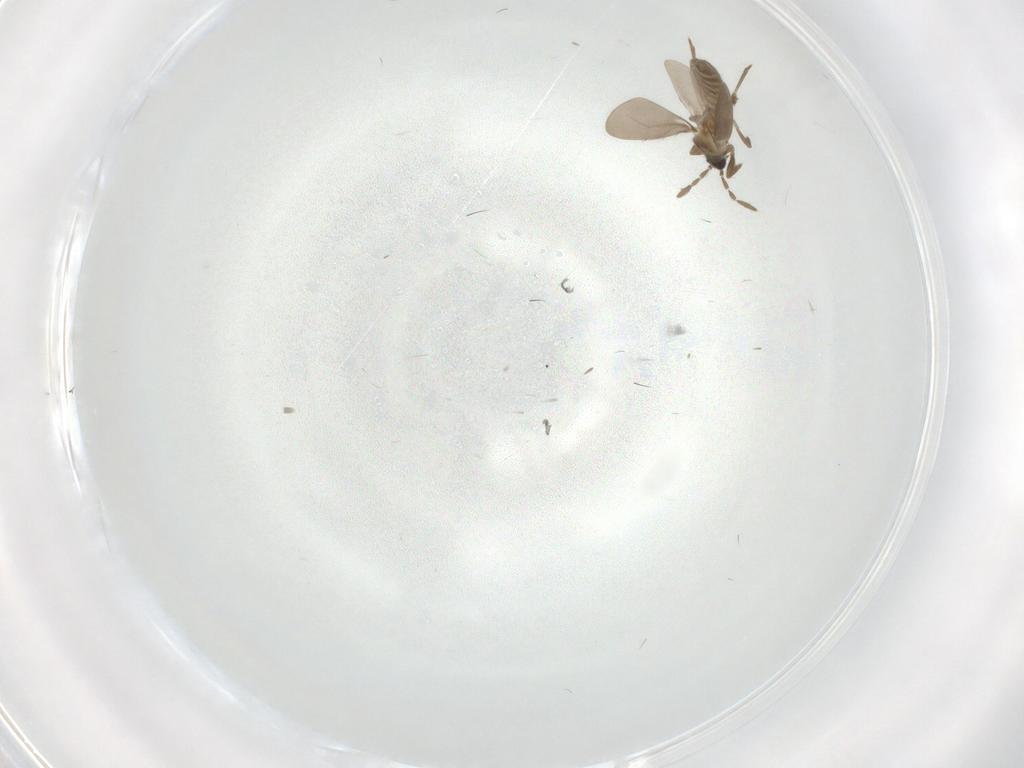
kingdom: Animalia
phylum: Arthropoda
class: Insecta
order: Hemiptera
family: Enicocephalidae
